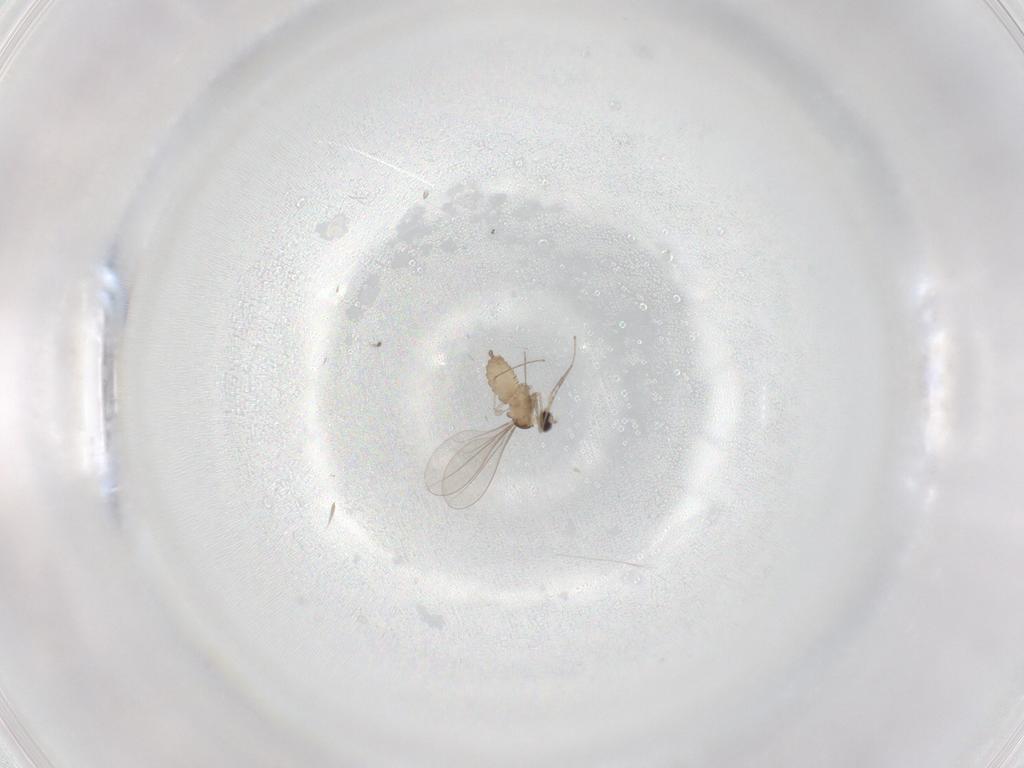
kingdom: Animalia
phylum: Arthropoda
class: Insecta
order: Diptera
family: Cecidomyiidae
